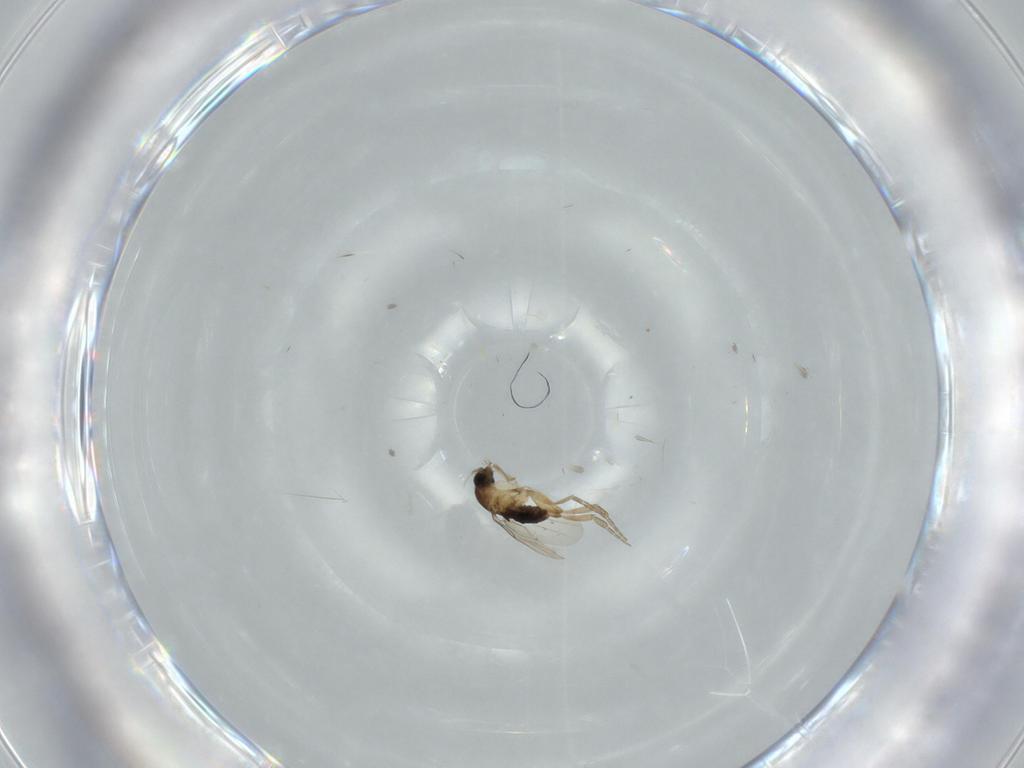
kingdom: Animalia
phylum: Arthropoda
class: Insecta
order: Diptera
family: Phoridae
